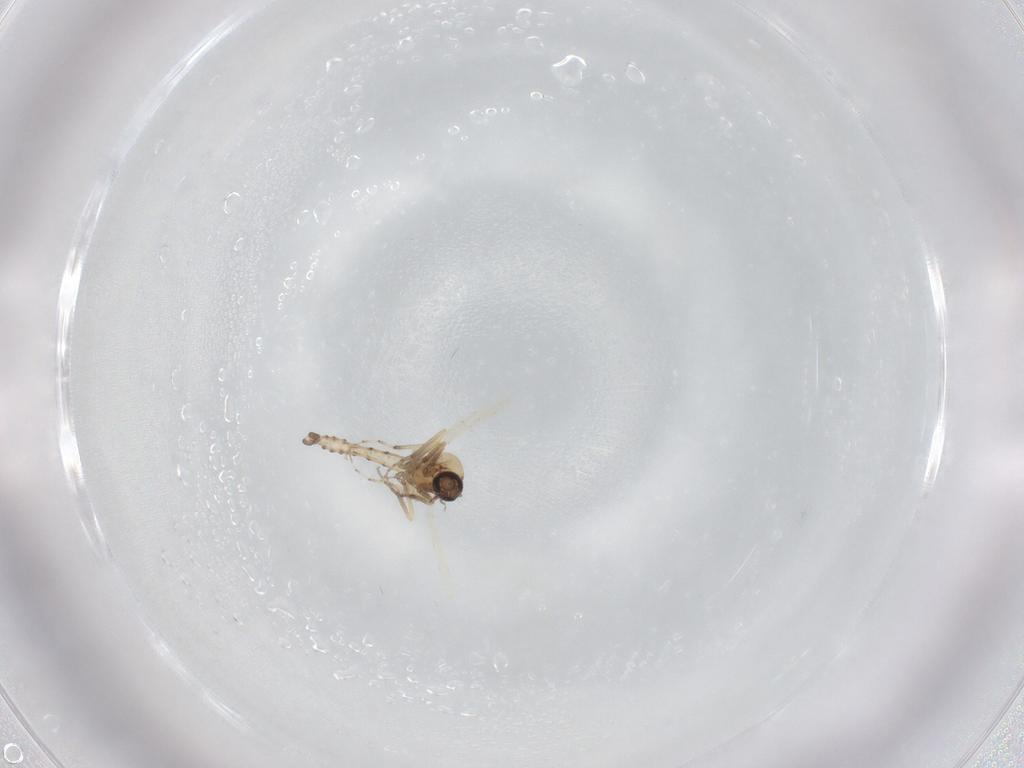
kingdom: Animalia
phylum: Arthropoda
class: Insecta
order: Diptera
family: Ceratopogonidae
